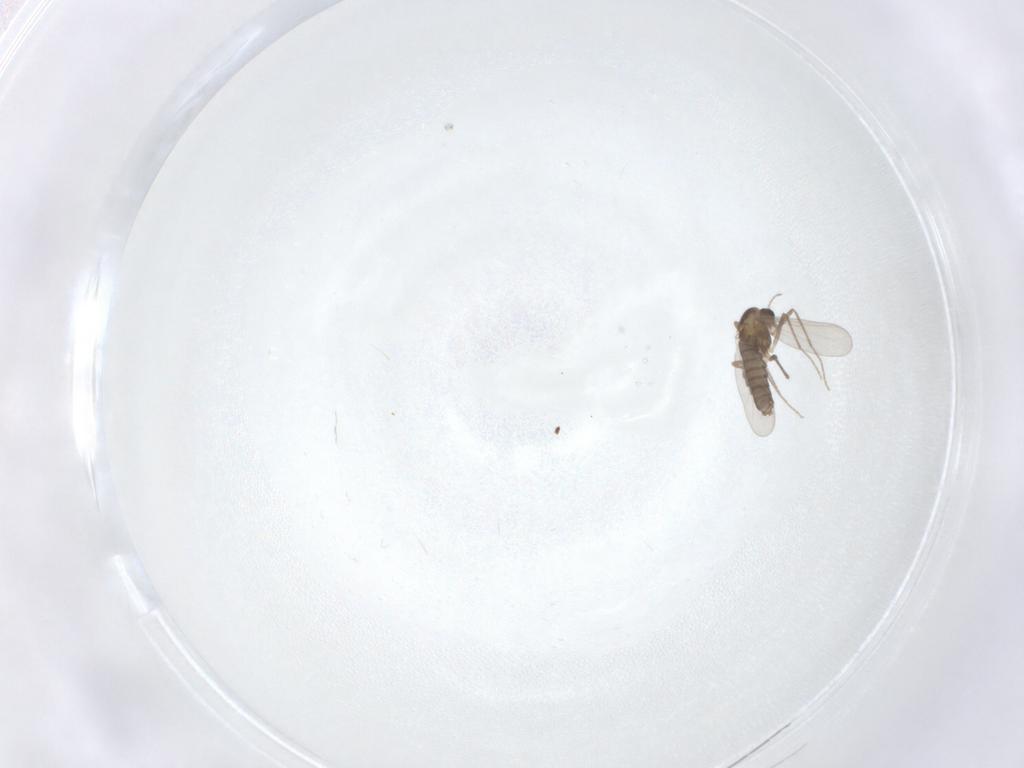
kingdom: Animalia
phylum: Arthropoda
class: Insecta
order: Diptera
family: Chironomidae
